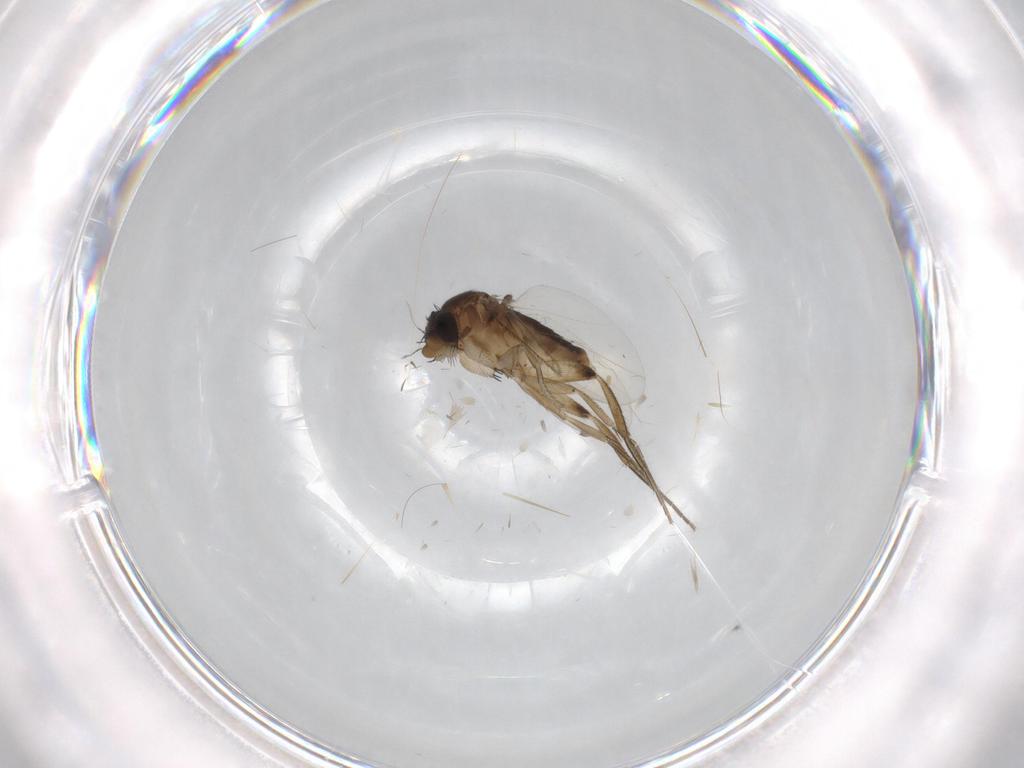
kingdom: Animalia
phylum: Arthropoda
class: Insecta
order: Diptera
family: Phoridae
